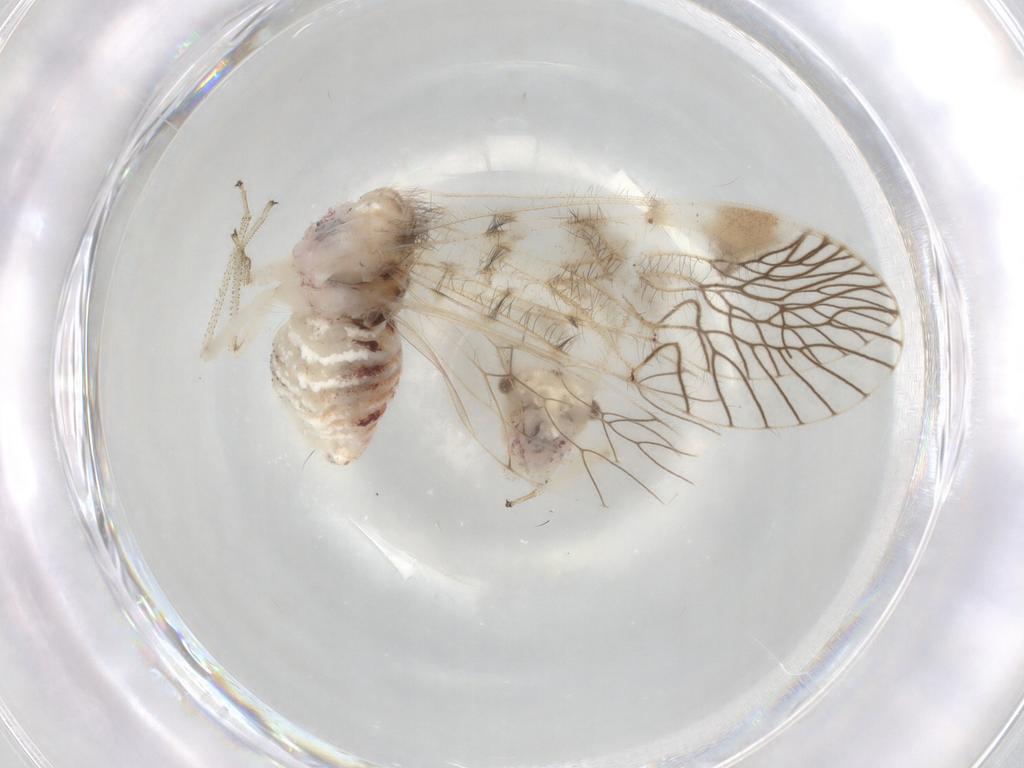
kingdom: Animalia
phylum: Arthropoda
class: Insecta
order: Psocodea
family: Amphipsocidae
